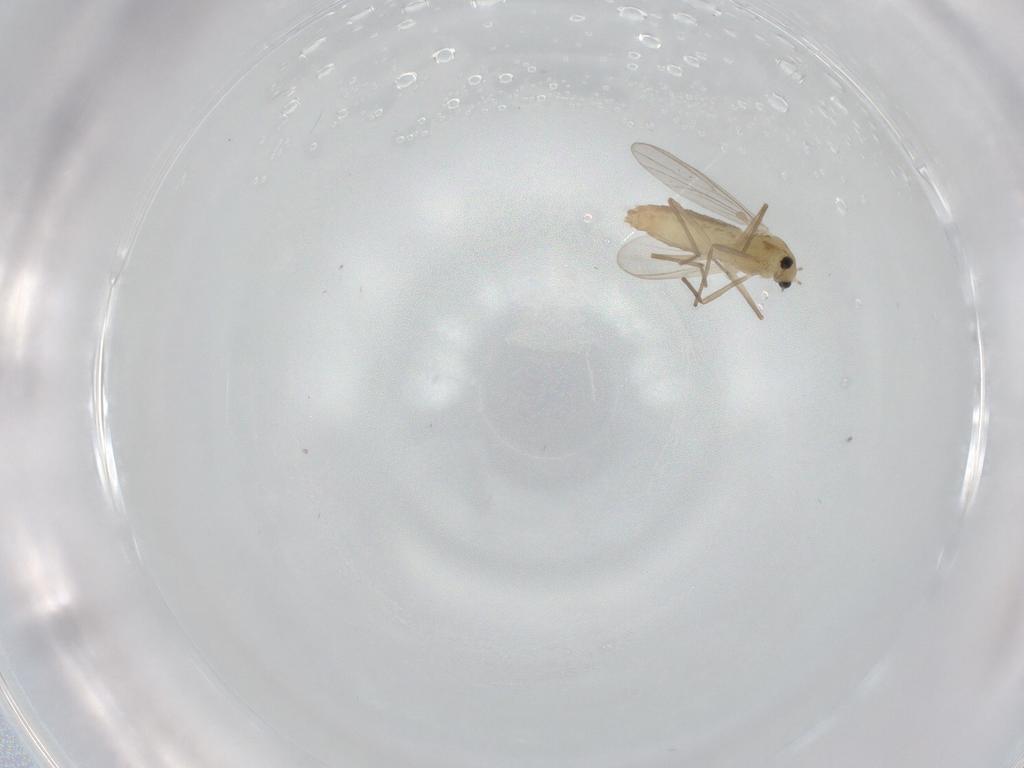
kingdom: Animalia
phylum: Arthropoda
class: Insecta
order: Diptera
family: Chironomidae
